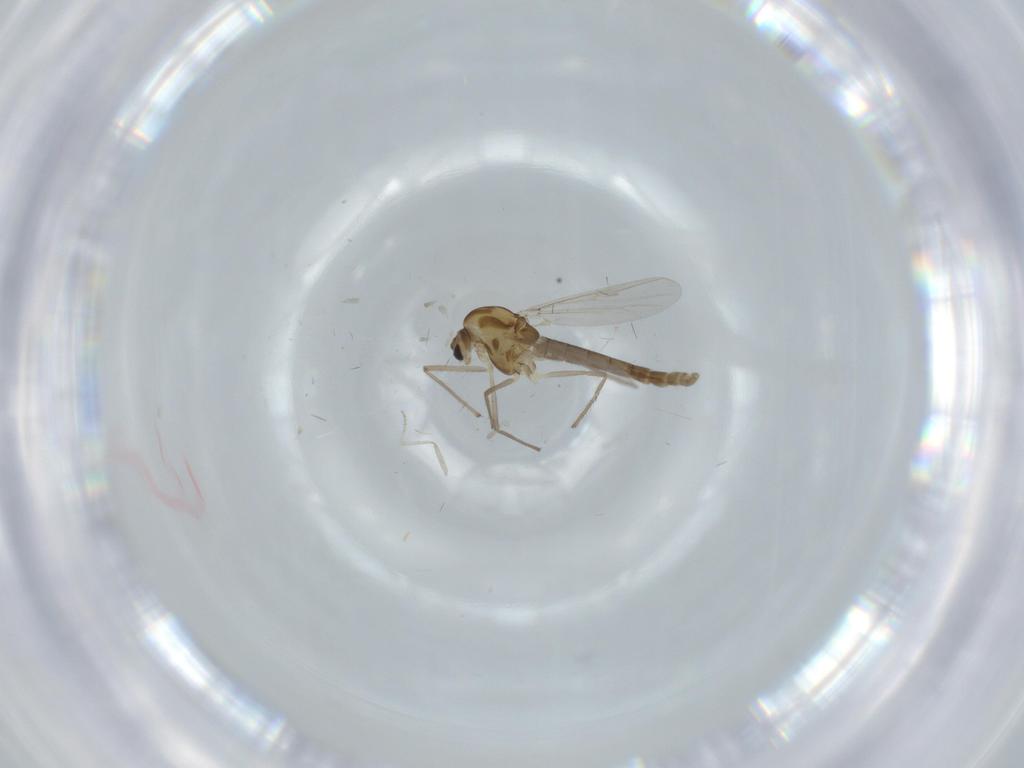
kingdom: Animalia
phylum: Arthropoda
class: Insecta
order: Diptera
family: Chironomidae
